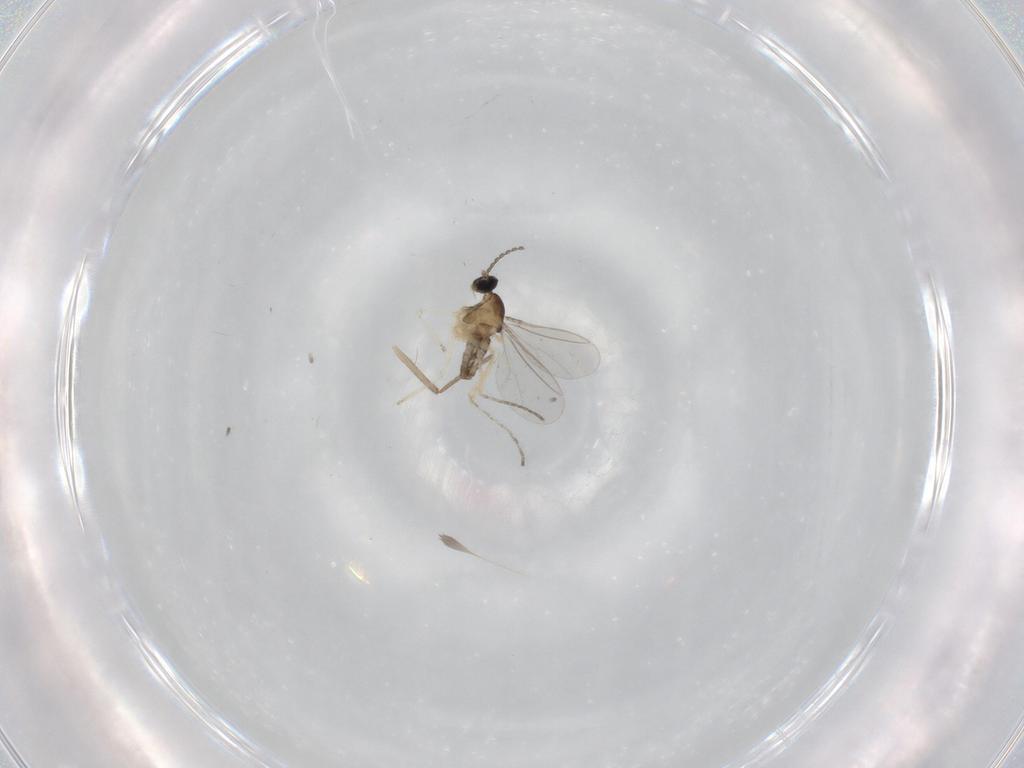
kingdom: Animalia
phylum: Arthropoda
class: Insecta
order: Diptera
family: Cecidomyiidae
